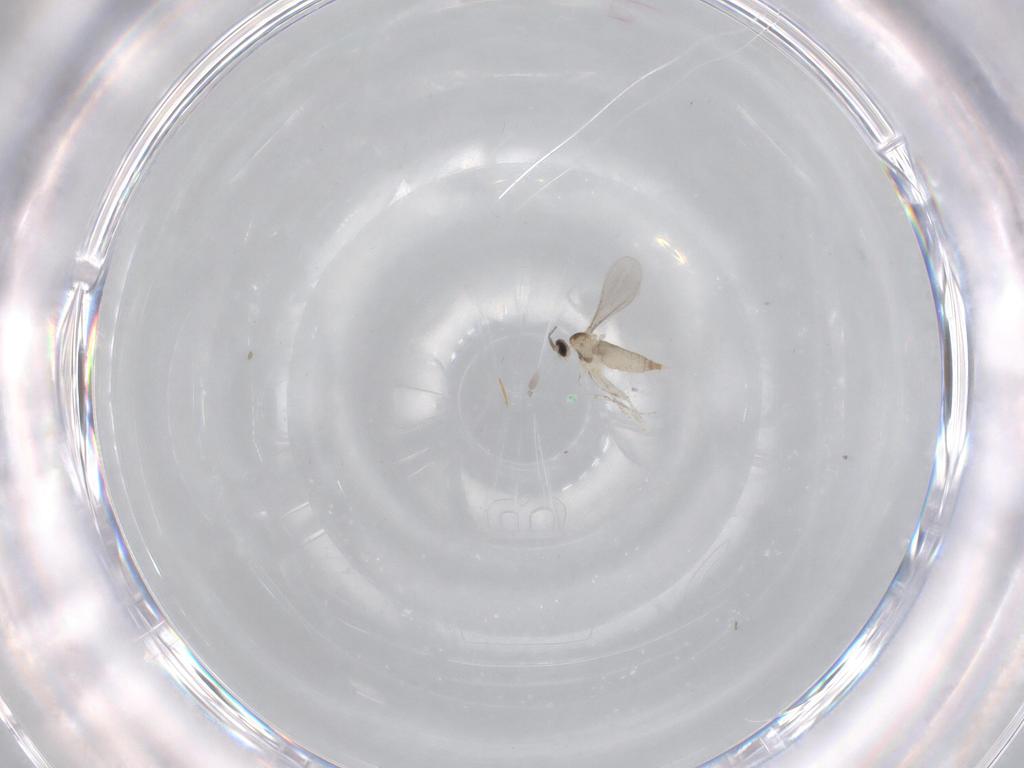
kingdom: Animalia
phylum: Arthropoda
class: Insecta
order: Diptera
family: Cecidomyiidae
